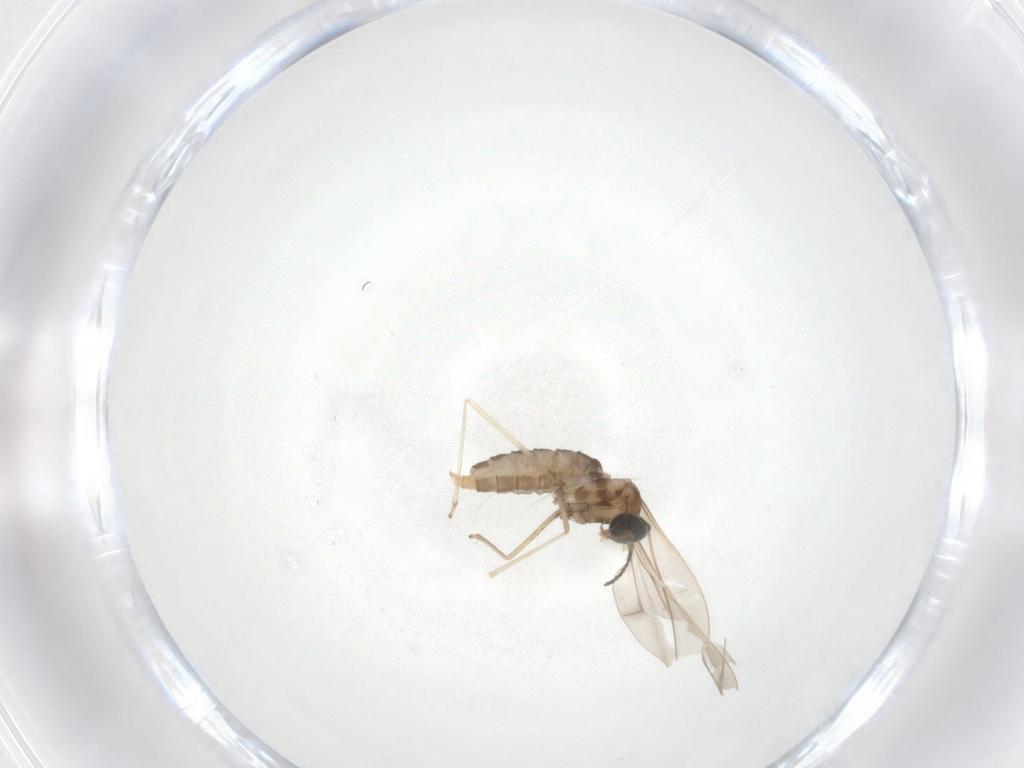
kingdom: Animalia
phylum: Arthropoda
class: Insecta
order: Diptera
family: Cecidomyiidae
